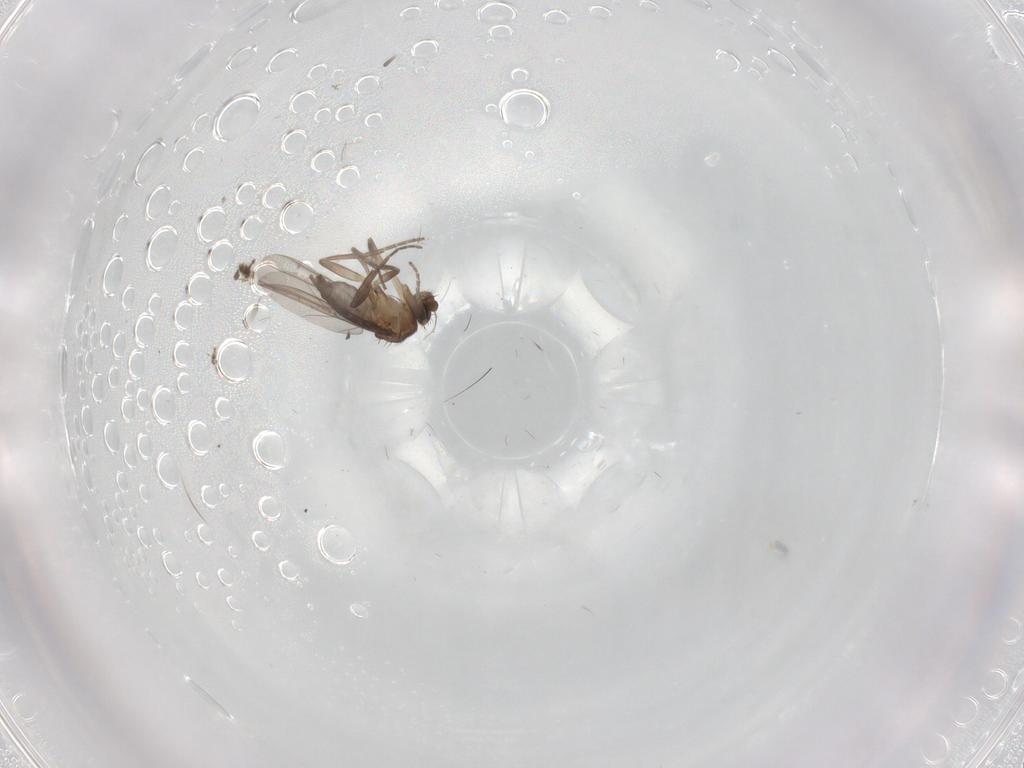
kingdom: Animalia
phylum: Arthropoda
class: Insecta
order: Diptera
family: Chironomidae
